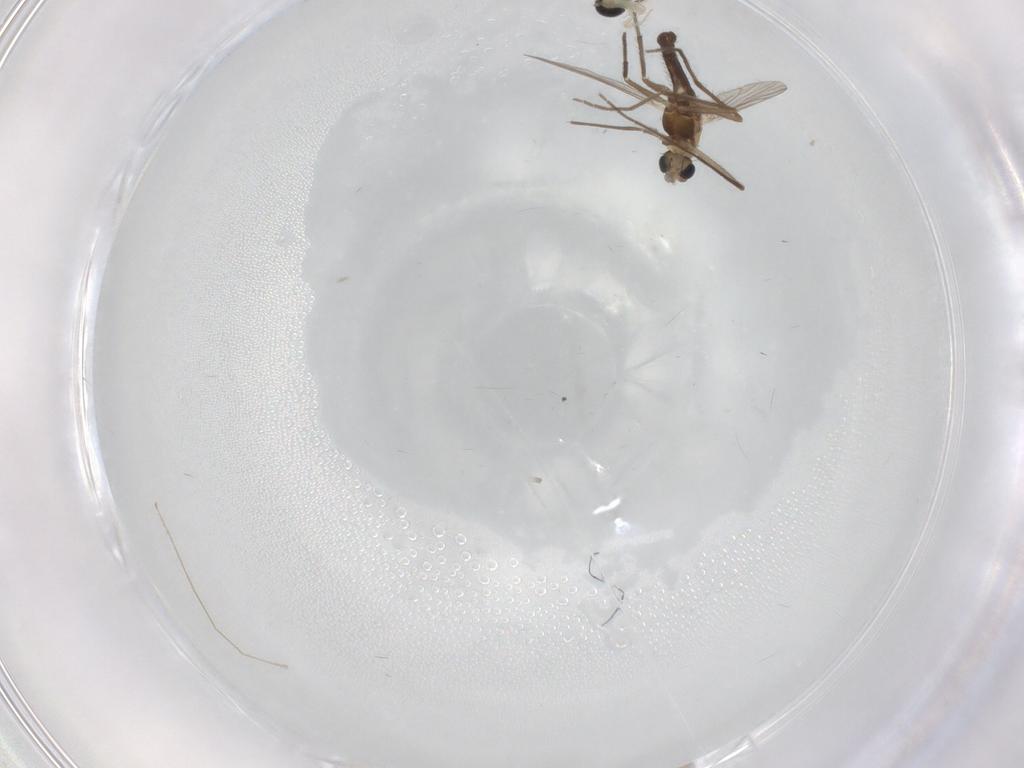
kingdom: Animalia
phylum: Arthropoda
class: Insecta
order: Diptera
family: Chironomidae
